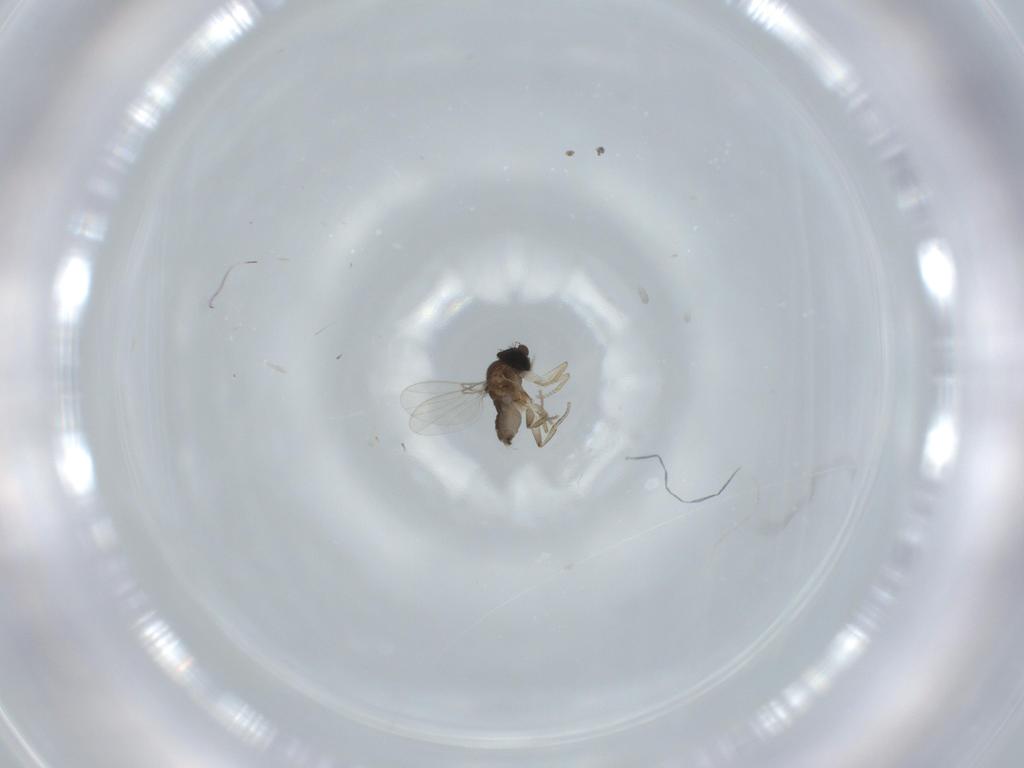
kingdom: Animalia
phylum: Arthropoda
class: Insecta
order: Diptera
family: Phoridae
